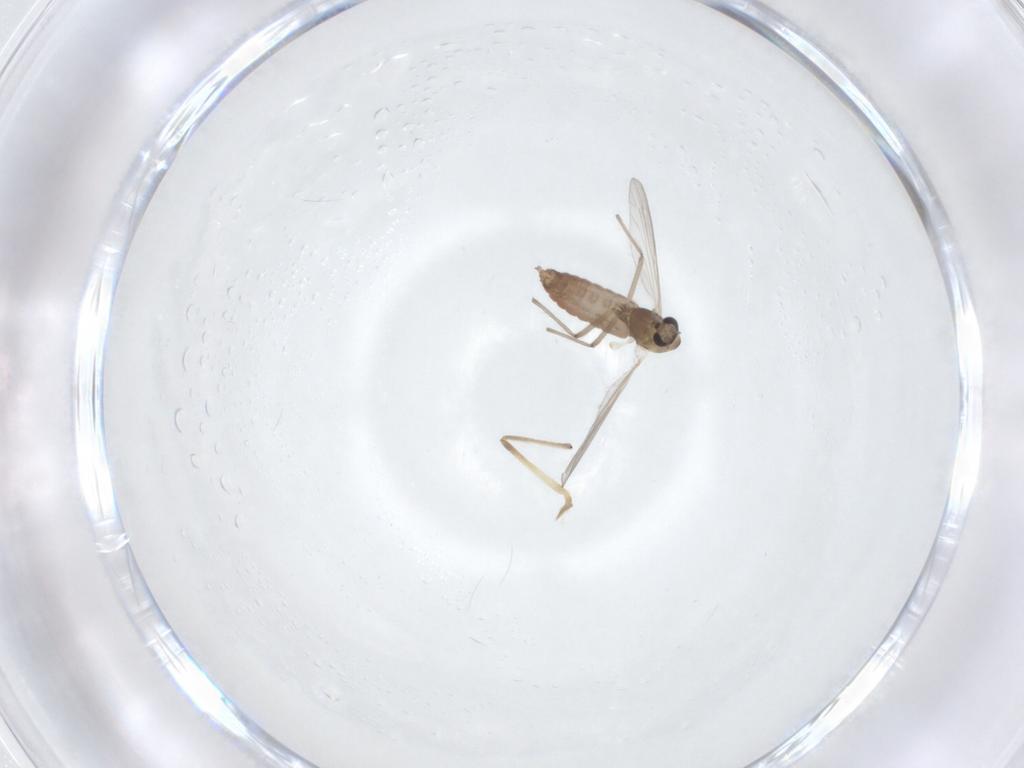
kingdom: Animalia
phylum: Arthropoda
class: Insecta
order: Diptera
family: Chironomidae
